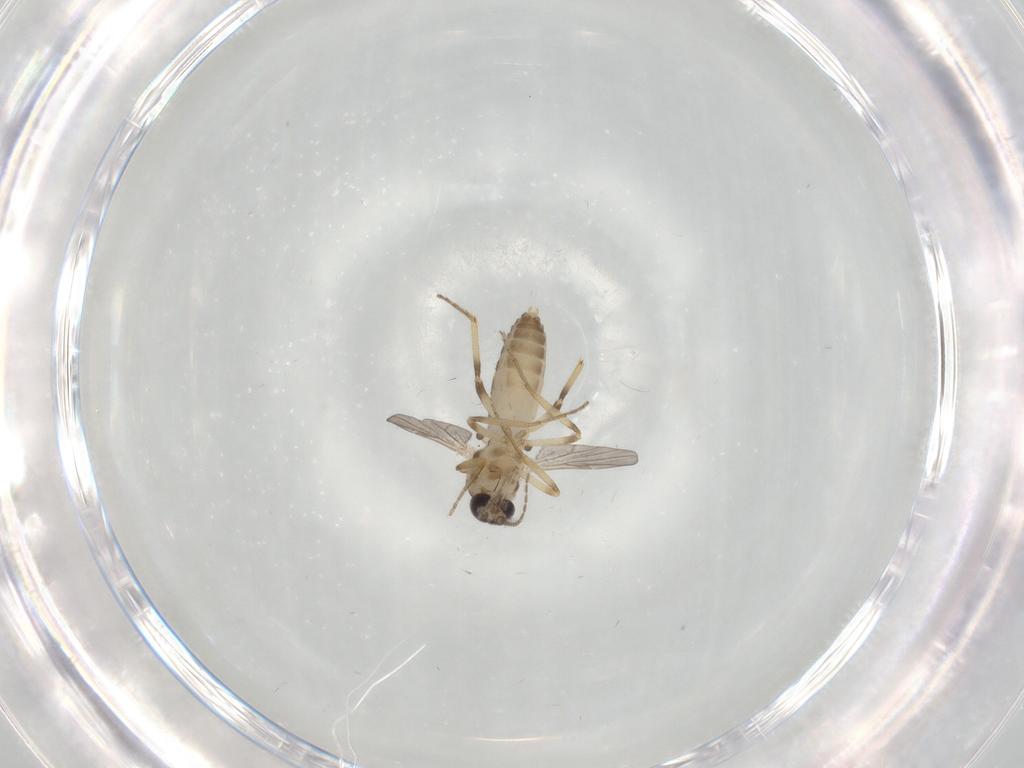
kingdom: Animalia
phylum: Arthropoda
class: Insecta
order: Diptera
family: Ceratopogonidae
